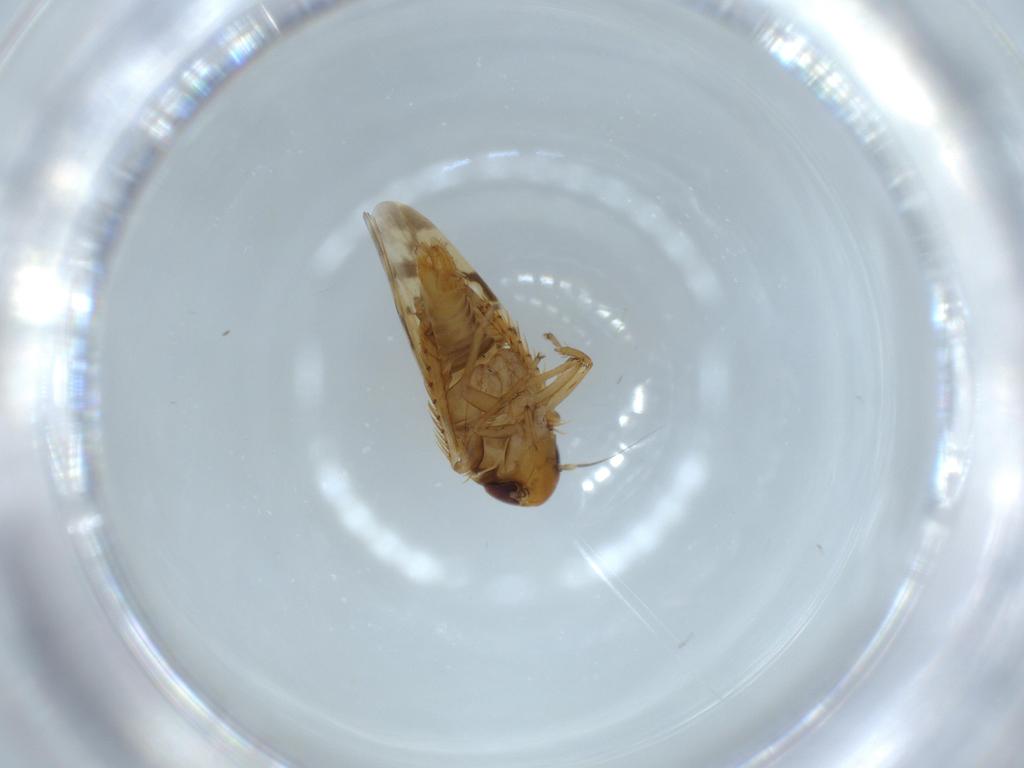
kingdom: Animalia
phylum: Arthropoda
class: Insecta
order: Hemiptera
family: Cicadellidae
